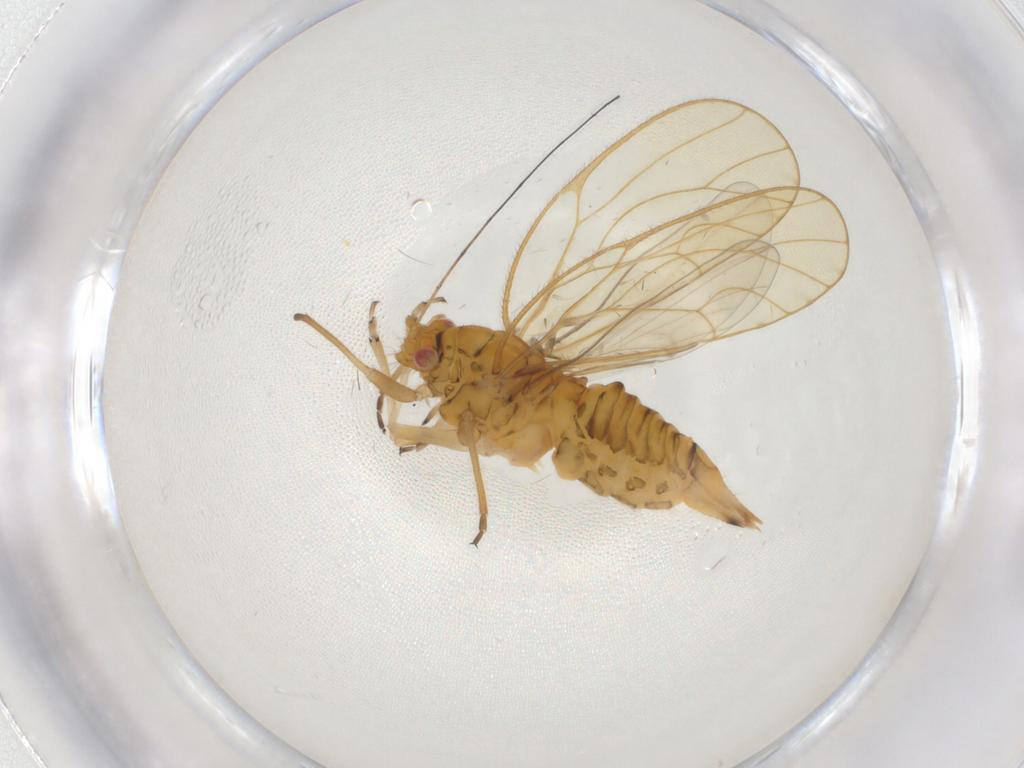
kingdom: Animalia
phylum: Arthropoda
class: Insecta
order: Hemiptera
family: Psyllidae
